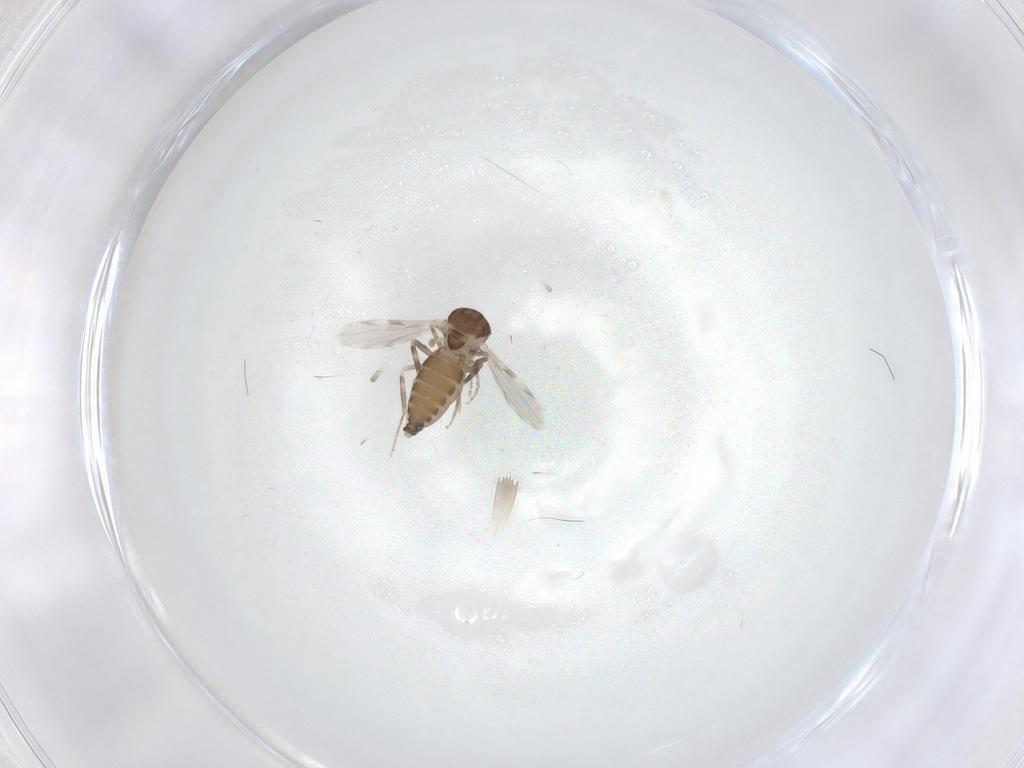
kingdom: Animalia
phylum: Arthropoda
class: Insecta
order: Diptera
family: Ceratopogonidae
